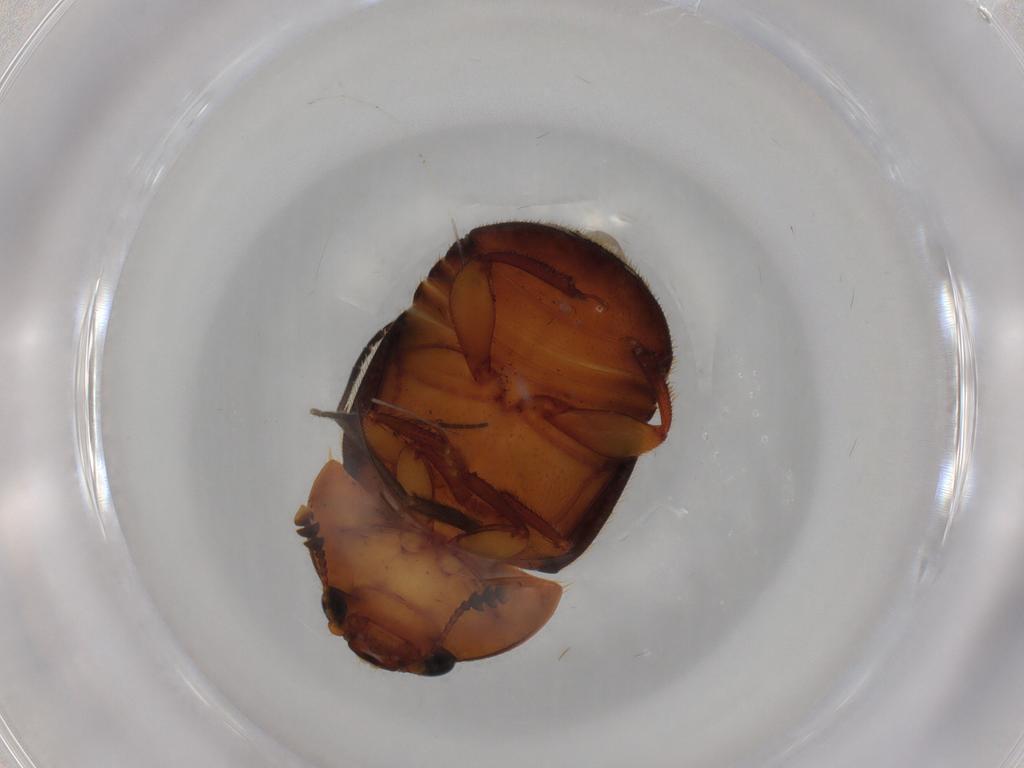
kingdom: Animalia
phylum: Arthropoda
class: Insecta
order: Coleoptera
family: Nitidulidae
